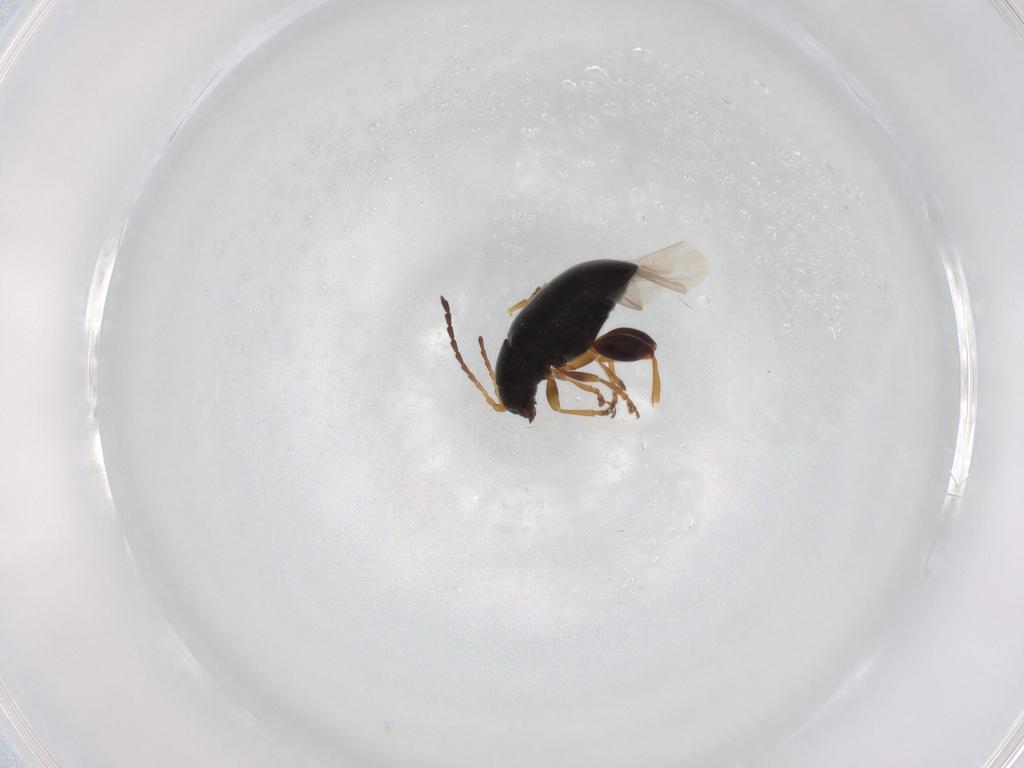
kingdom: Animalia
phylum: Arthropoda
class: Insecta
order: Coleoptera
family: Chrysomelidae
